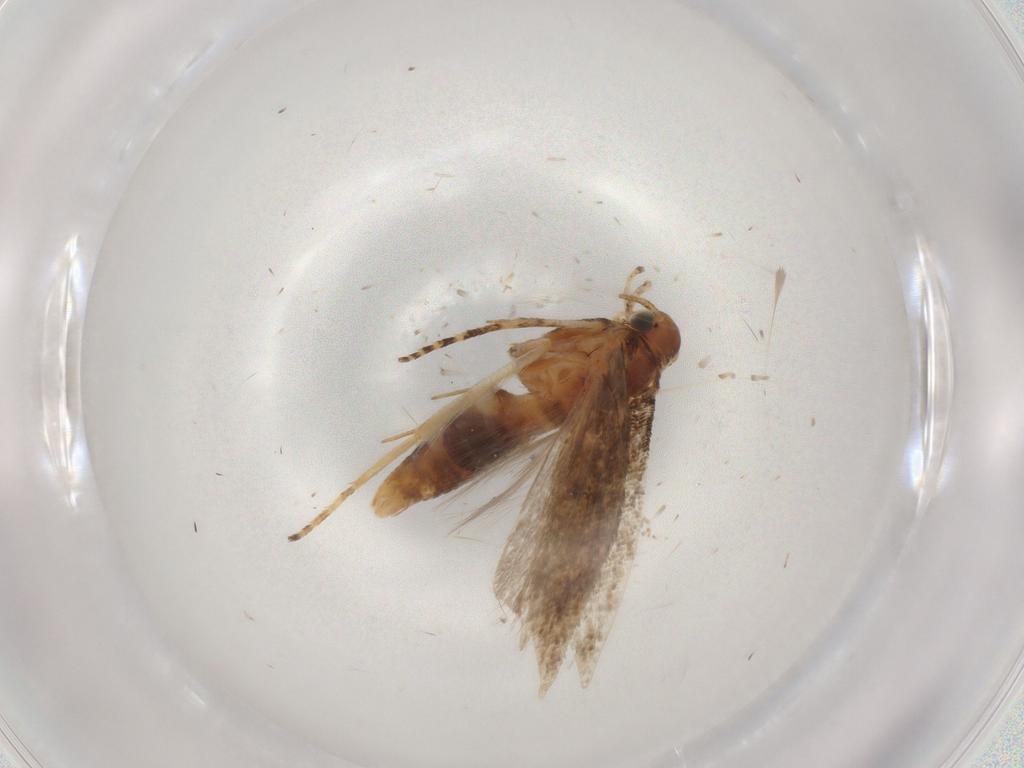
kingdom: Animalia
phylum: Arthropoda
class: Insecta
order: Lepidoptera
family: Gelechiidae
